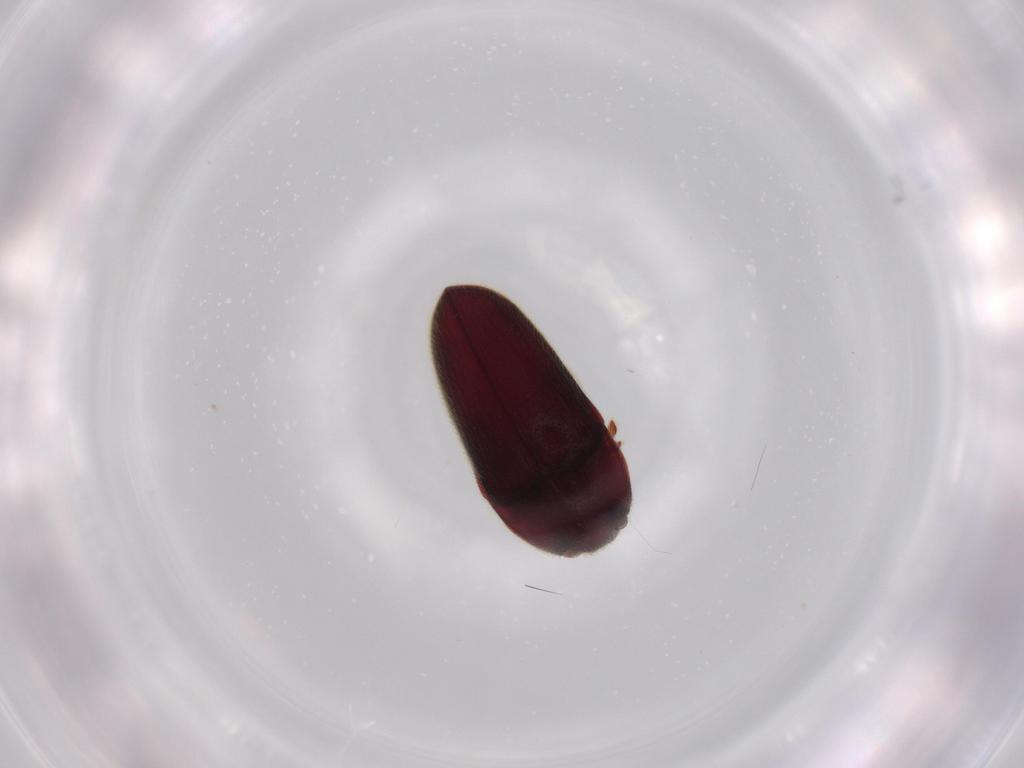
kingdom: Animalia
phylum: Arthropoda
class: Insecta
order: Coleoptera
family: Throscidae
